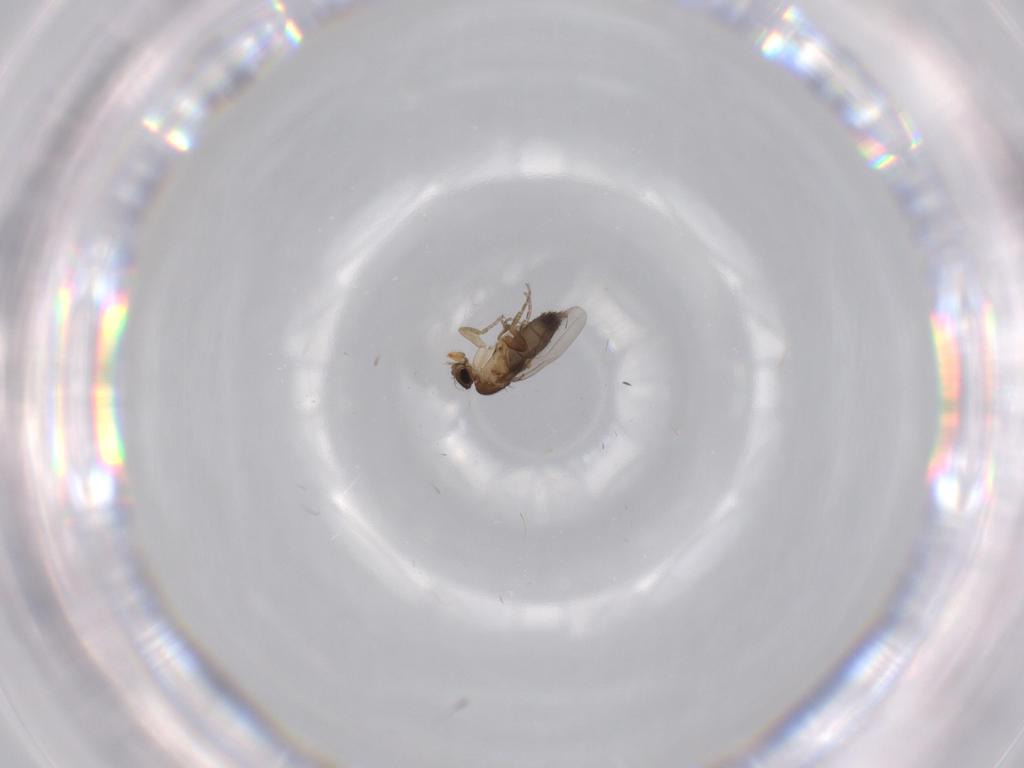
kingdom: Animalia
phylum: Arthropoda
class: Insecta
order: Diptera
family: Phoridae
